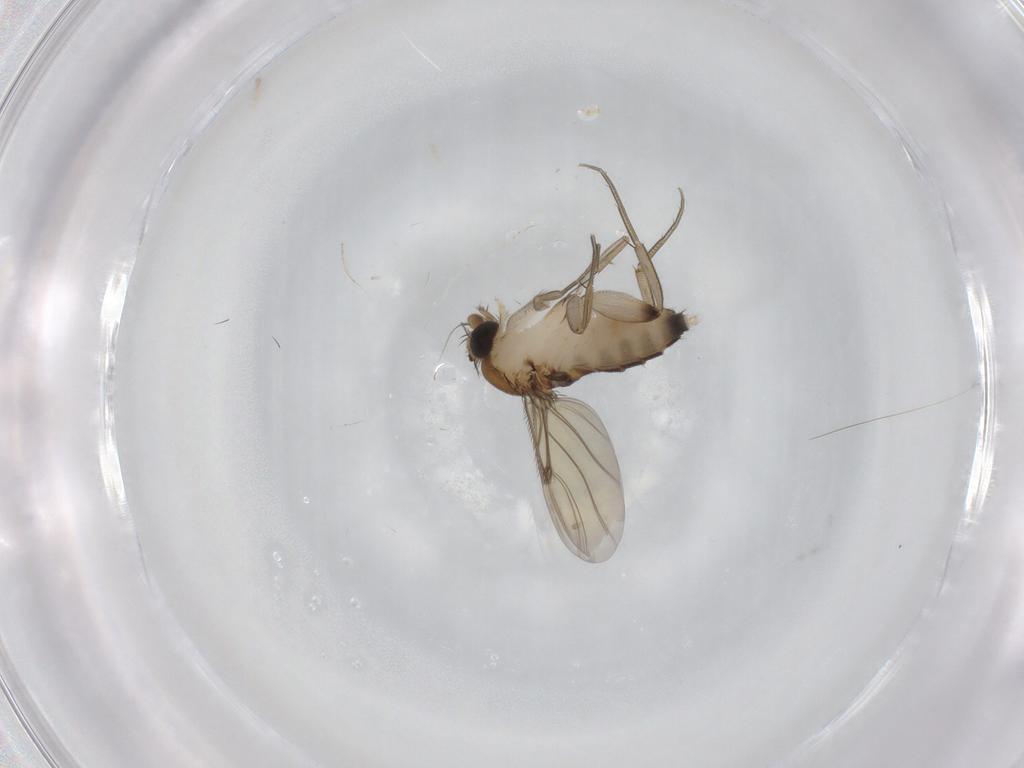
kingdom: Animalia
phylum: Arthropoda
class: Insecta
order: Diptera
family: Phoridae
